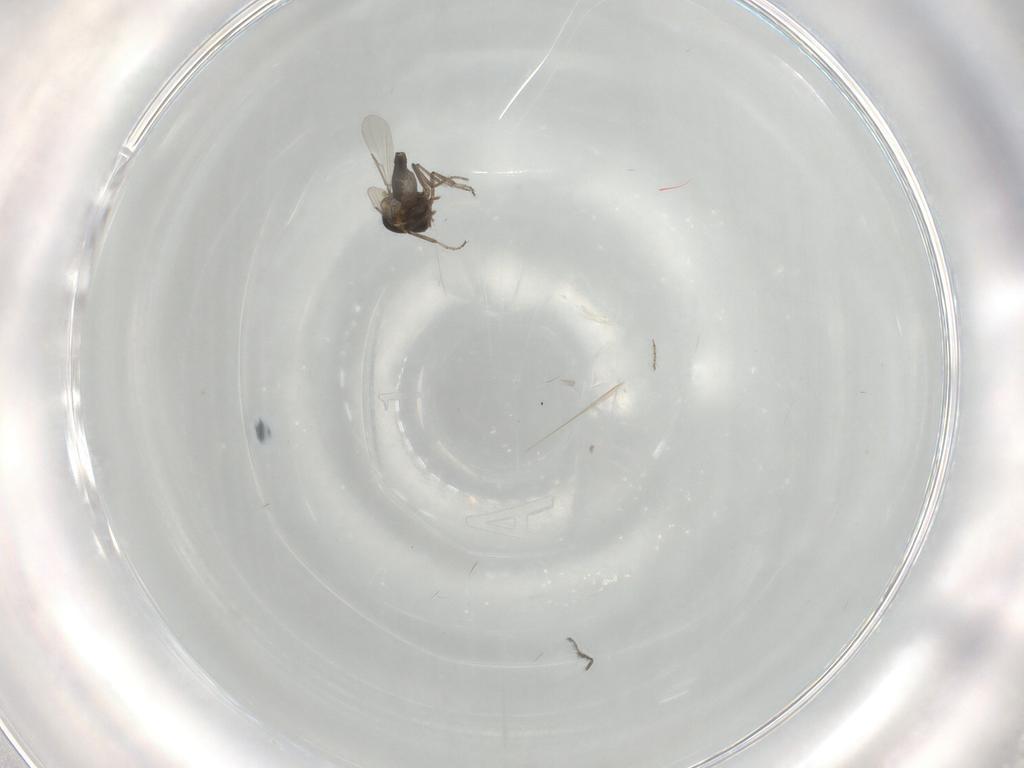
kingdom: Animalia
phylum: Arthropoda
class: Insecta
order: Diptera
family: Ceratopogonidae
